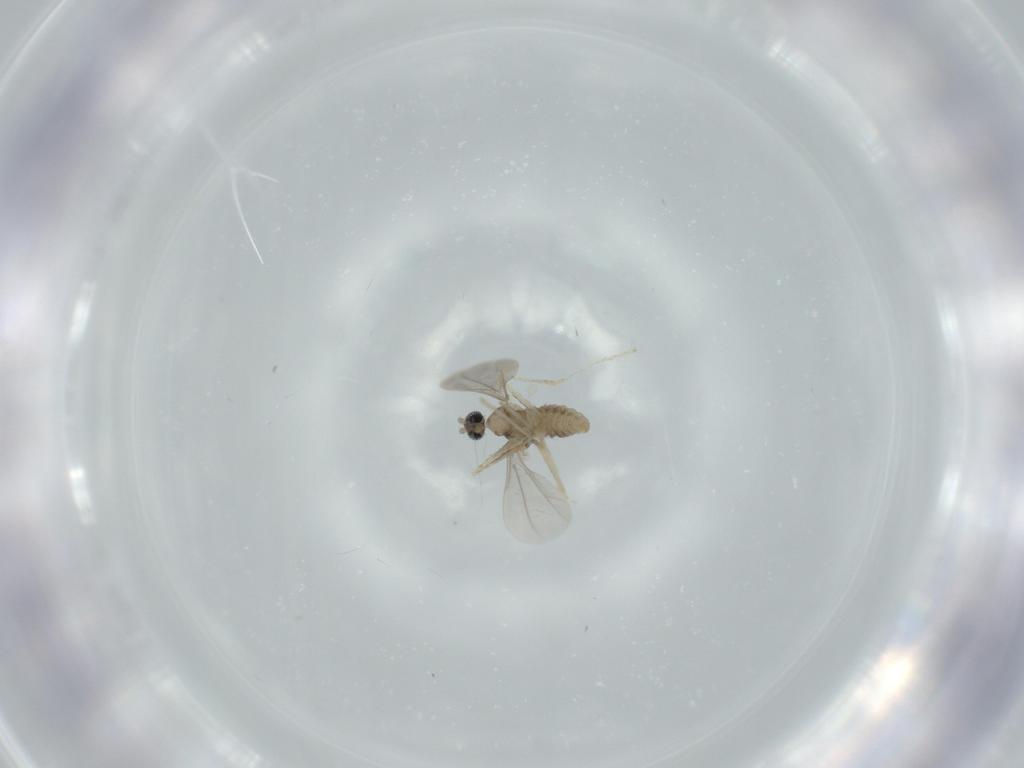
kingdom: Animalia
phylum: Arthropoda
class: Insecta
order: Diptera
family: Cecidomyiidae
